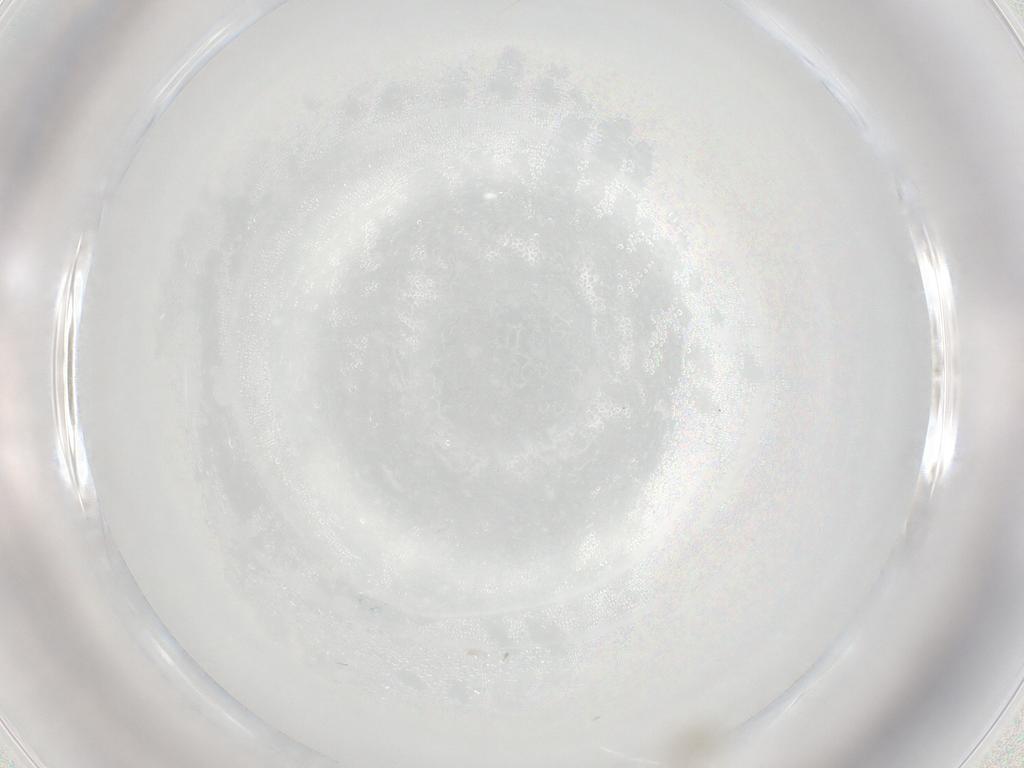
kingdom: Animalia
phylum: Arthropoda
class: Insecta
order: Diptera
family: Cecidomyiidae
